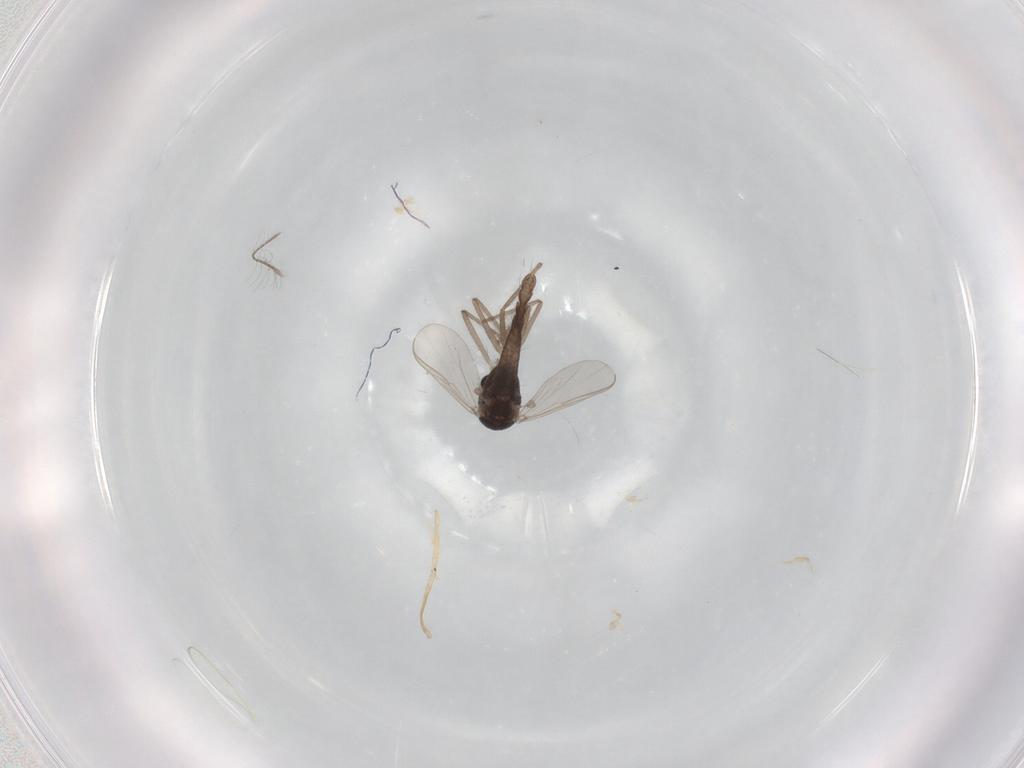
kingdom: Animalia
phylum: Arthropoda
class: Insecta
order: Diptera
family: Chironomidae
